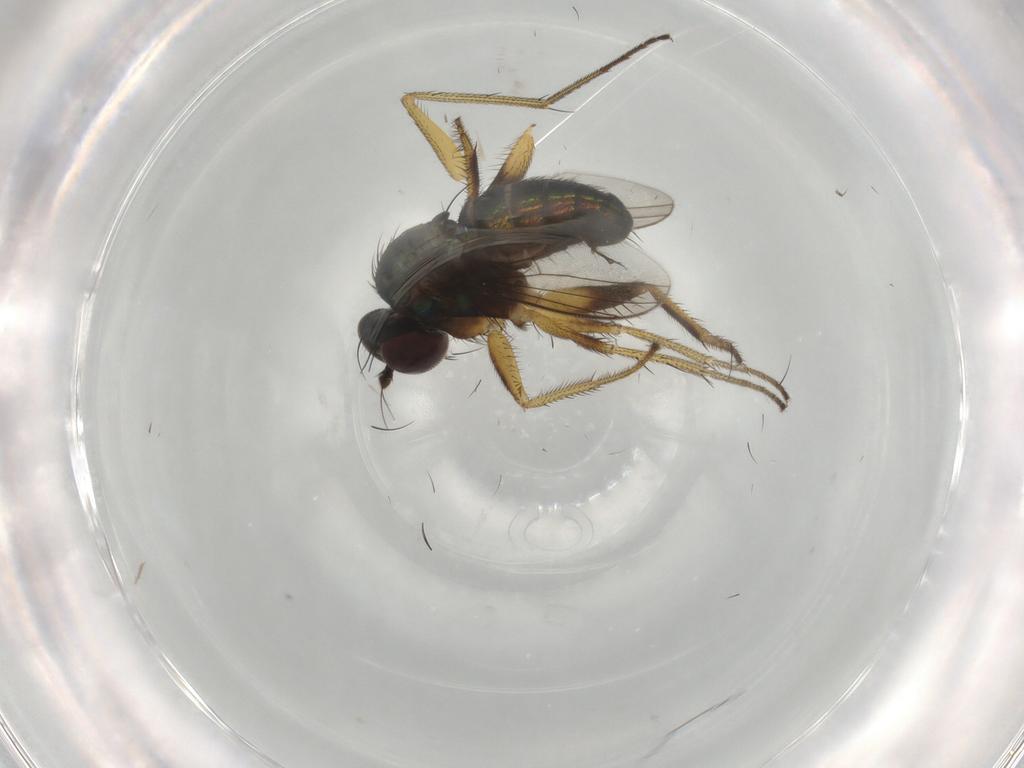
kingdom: Animalia
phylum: Arthropoda
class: Insecta
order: Diptera
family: Dolichopodidae
